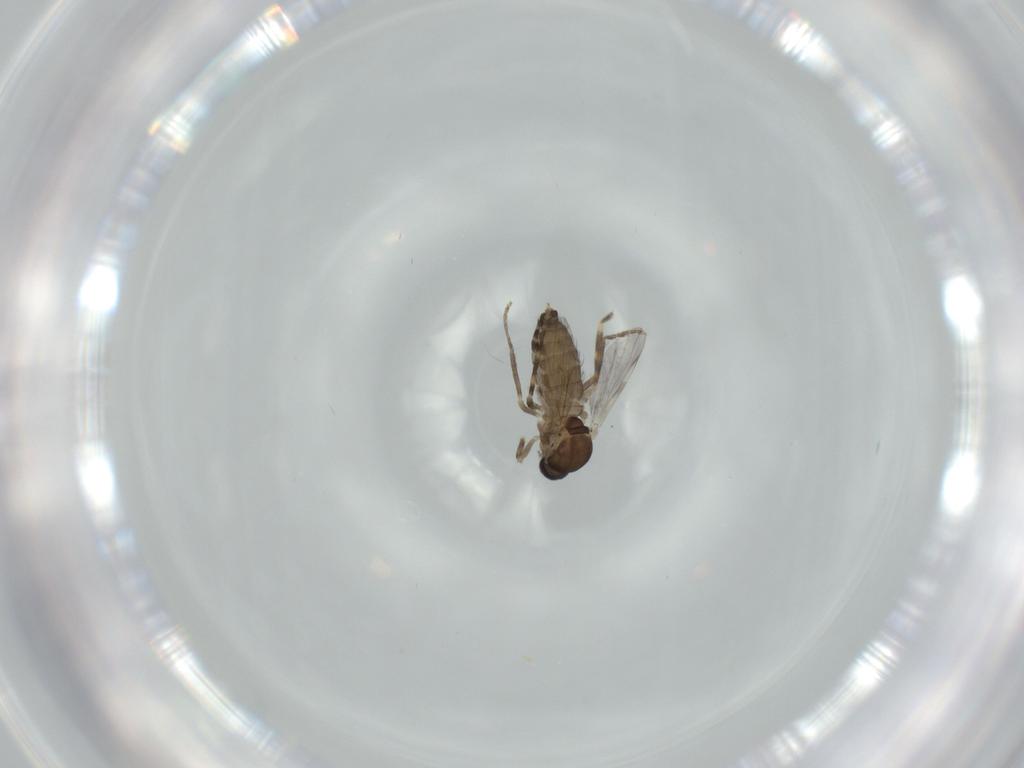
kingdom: Animalia
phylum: Arthropoda
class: Insecta
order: Diptera
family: Ceratopogonidae
